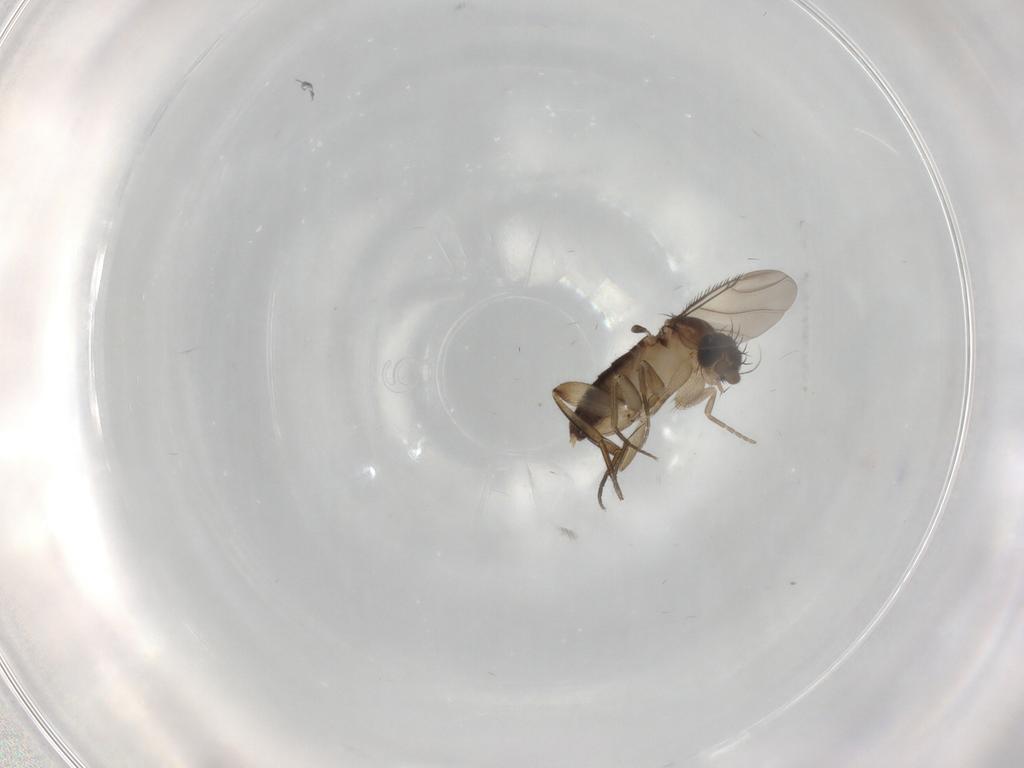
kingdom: Animalia
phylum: Arthropoda
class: Insecta
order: Diptera
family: Phoridae
